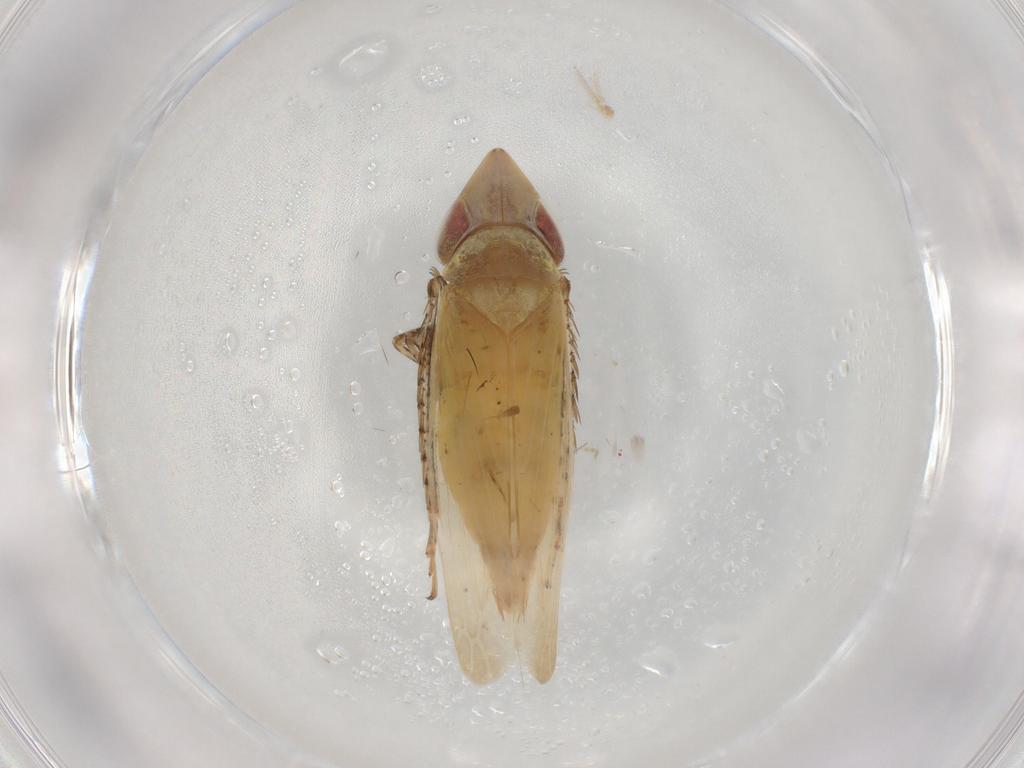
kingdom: Animalia
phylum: Arthropoda
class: Insecta
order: Hemiptera
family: Cicadellidae
